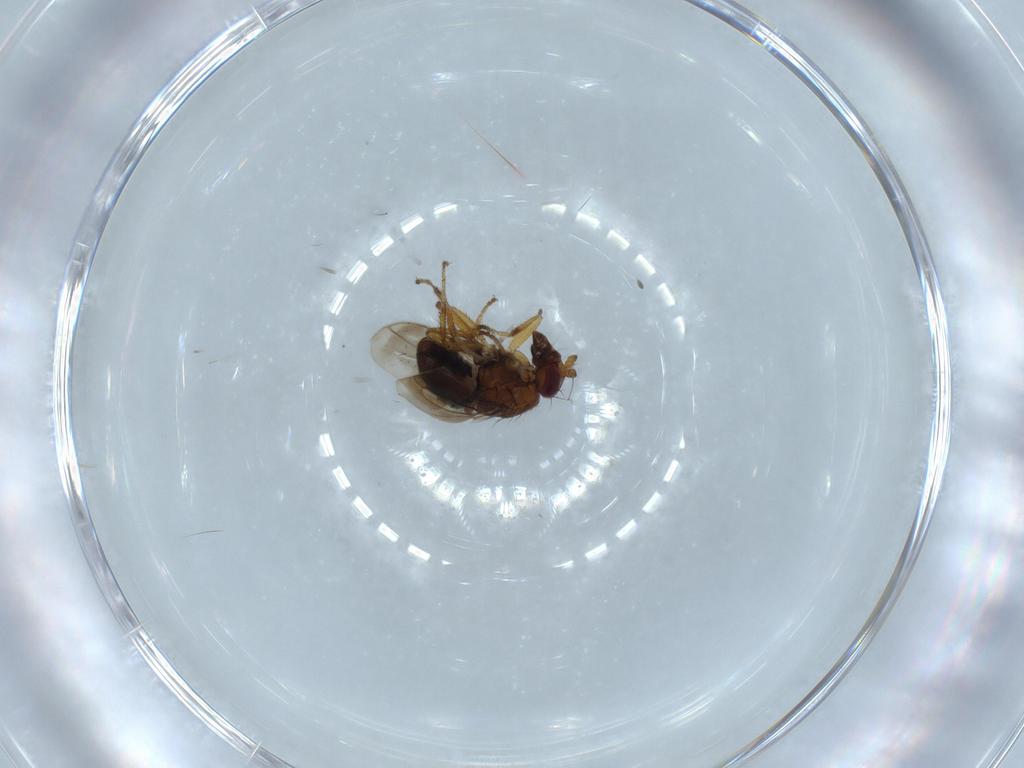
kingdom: Animalia
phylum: Arthropoda
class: Insecta
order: Diptera
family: Sphaeroceridae
